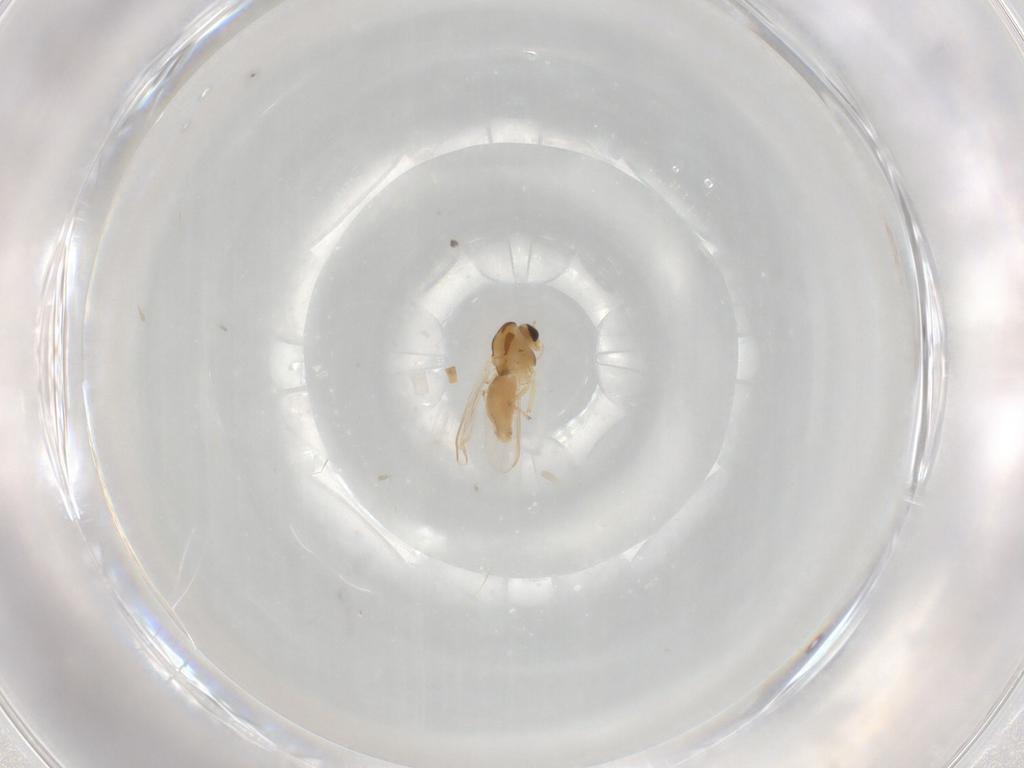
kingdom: Animalia
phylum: Arthropoda
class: Insecta
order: Diptera
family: Chironomidae
